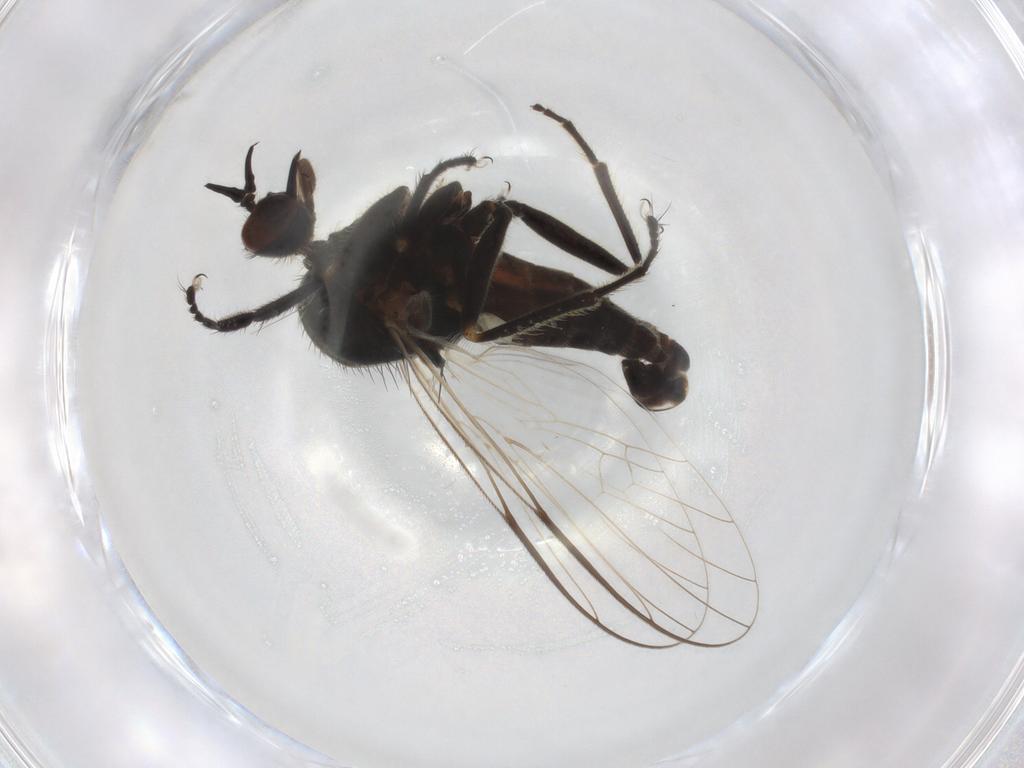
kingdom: Animalia
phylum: Arthropoda
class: Insecta
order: Diptera
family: Empididae
